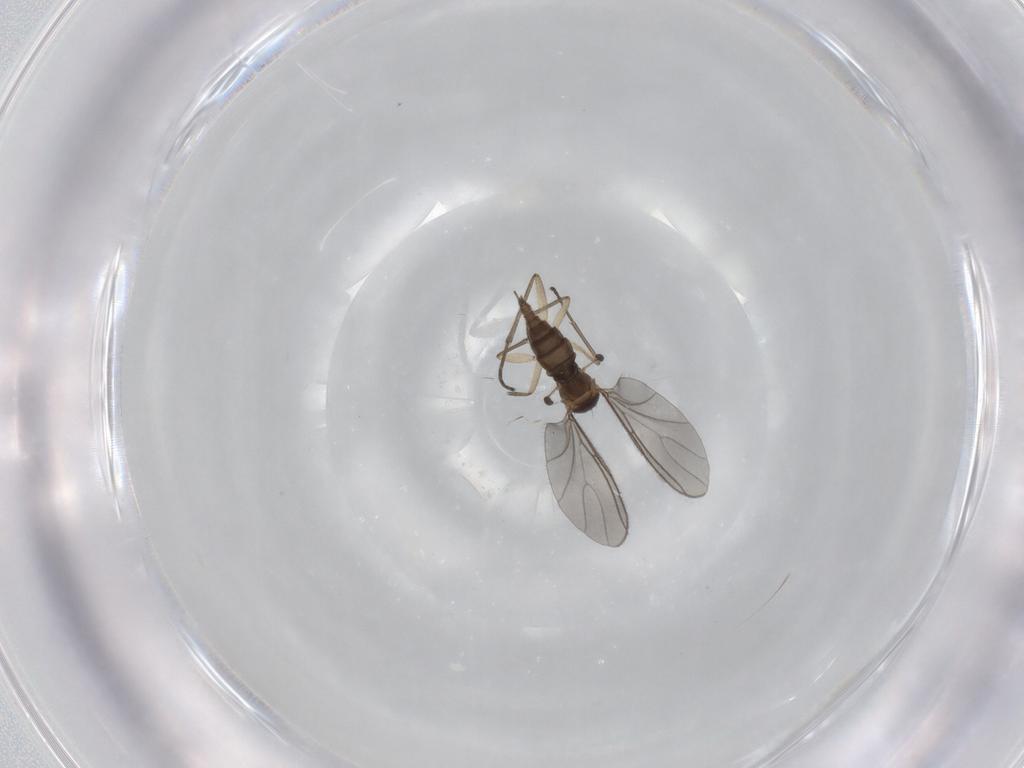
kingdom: Animalia
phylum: Arthropoda
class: Insecta
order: Diptera
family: Sciaridae
